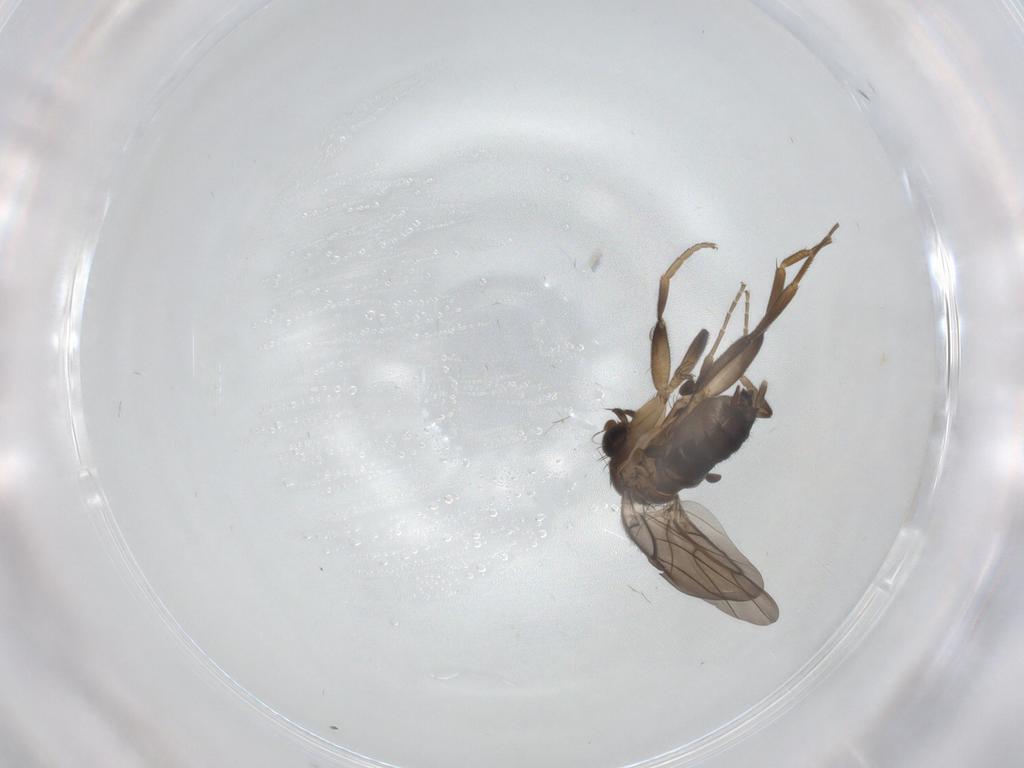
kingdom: Animalia
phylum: Arthropoda
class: Insecta
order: Diptera
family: Phoridae
